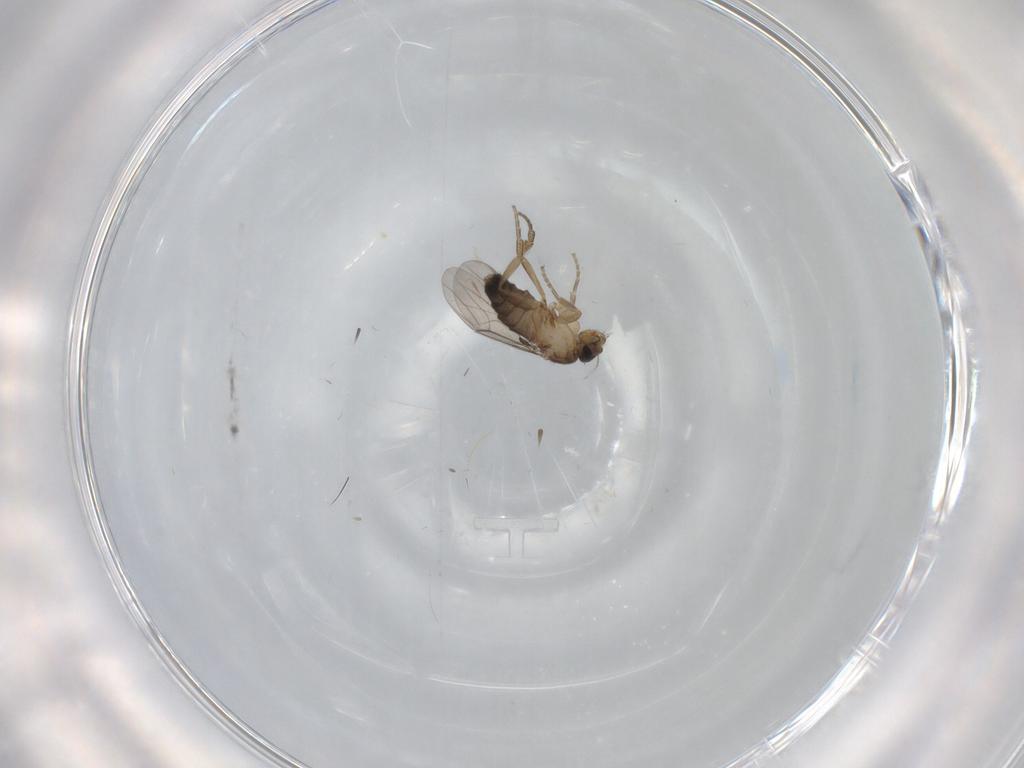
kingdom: Animalia
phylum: Arthropoda
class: Insecta
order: Diptera
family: Phoridae
